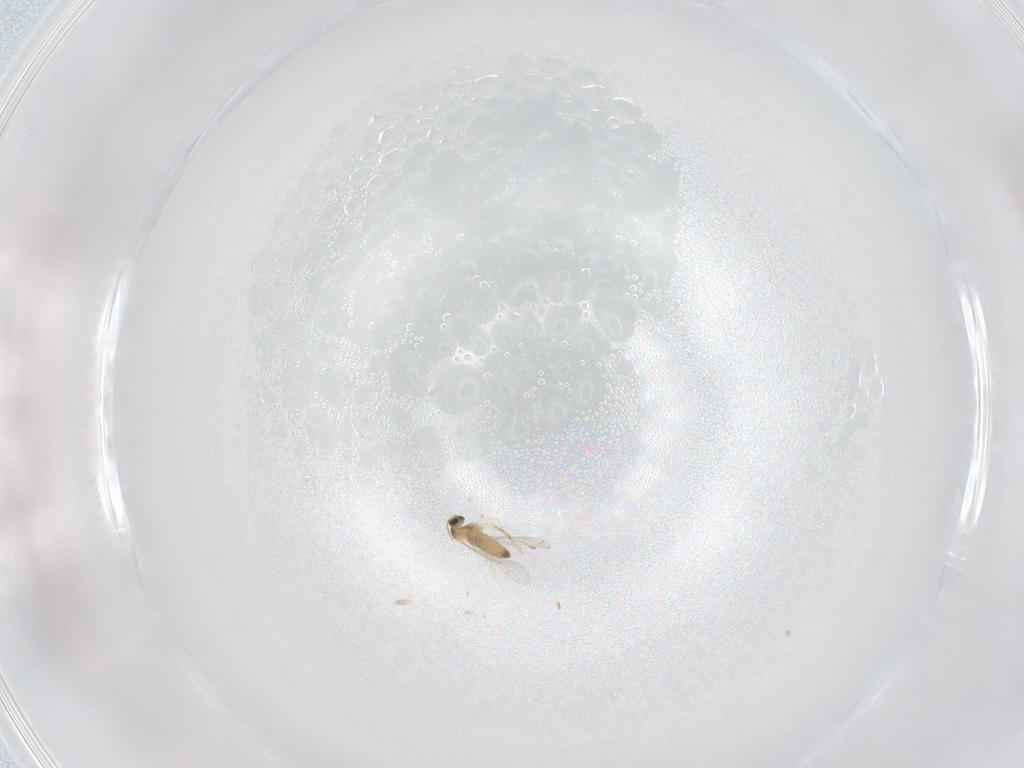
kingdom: Animalia
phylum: Arthropoda
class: Insecta
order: Diptera
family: Cecidomyiidae
